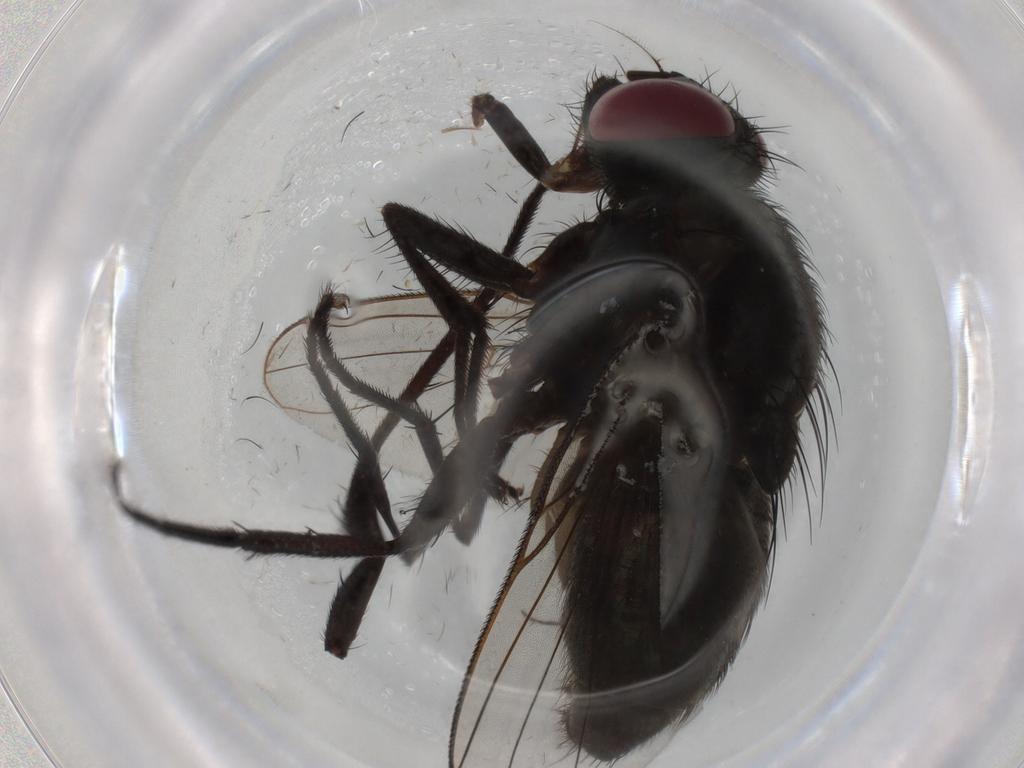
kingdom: Animalia
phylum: Arthropoda
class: Insecta
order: Diptera
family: Muscidae
